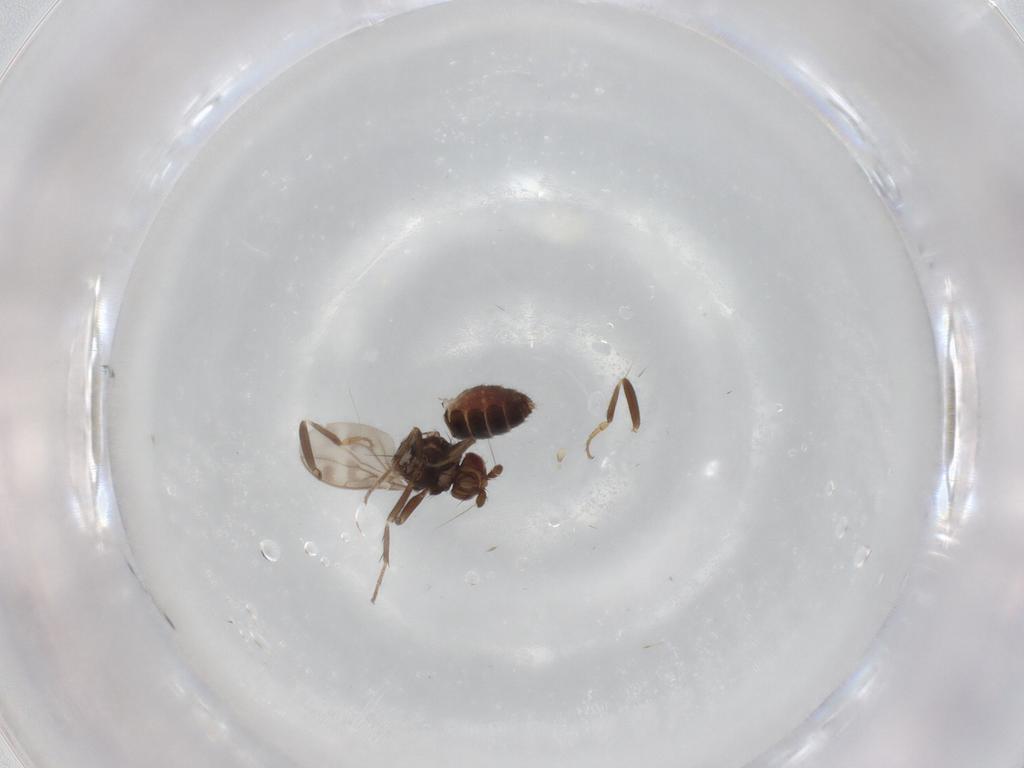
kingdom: Animalia
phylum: Arthropoda
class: Insecta
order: Diptera
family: Sphaeroceridae
